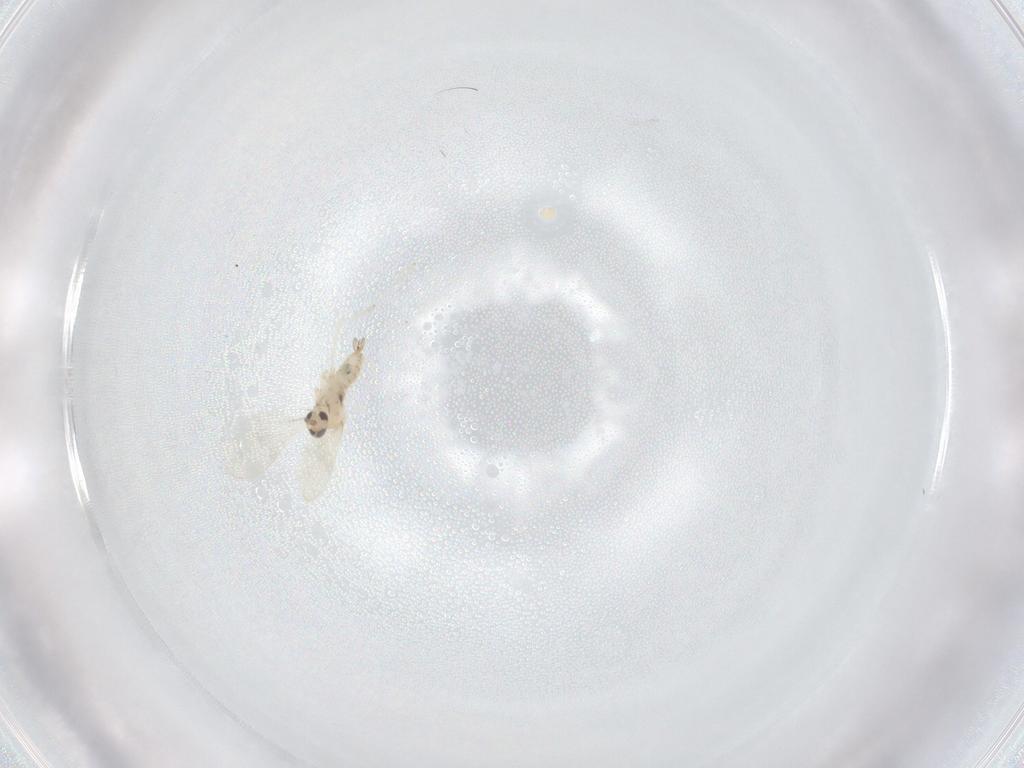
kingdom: Animalia
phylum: Arthropoda
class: Insecta
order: Diptera
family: Cecidomyiidae
